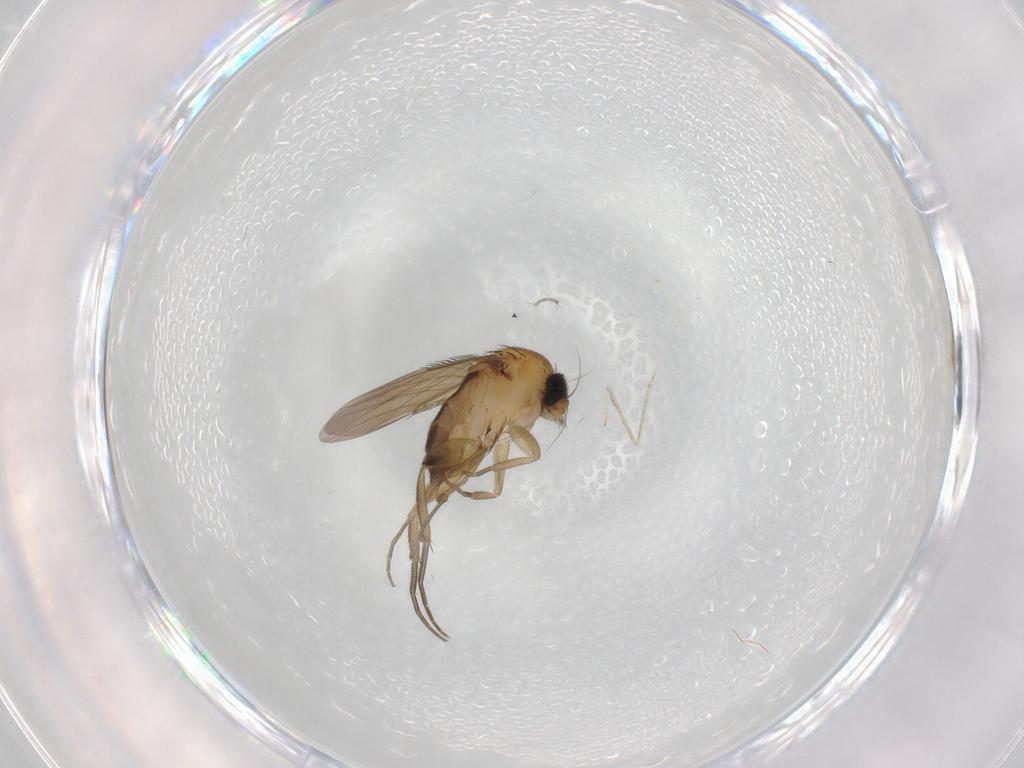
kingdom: Animalia
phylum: Arthropoda
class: Insecta
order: Diptera
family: Phoridae
